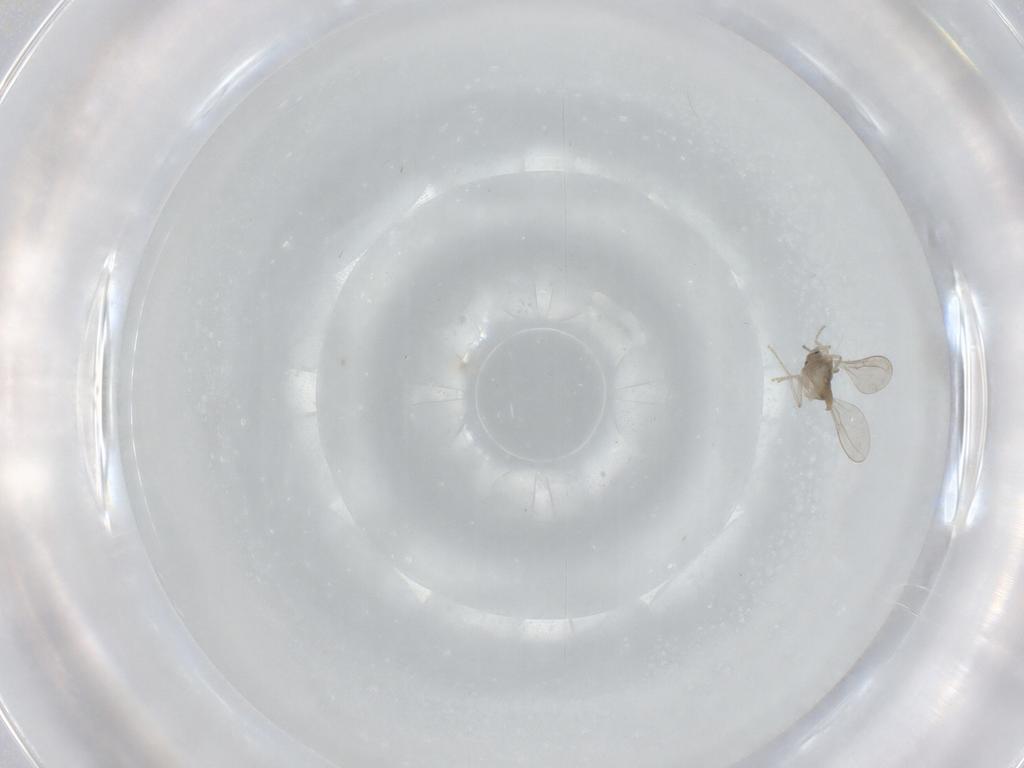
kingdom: Animalia
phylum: Arthropoda
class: Insecta
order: Diptera
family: Cecidomyiidae
